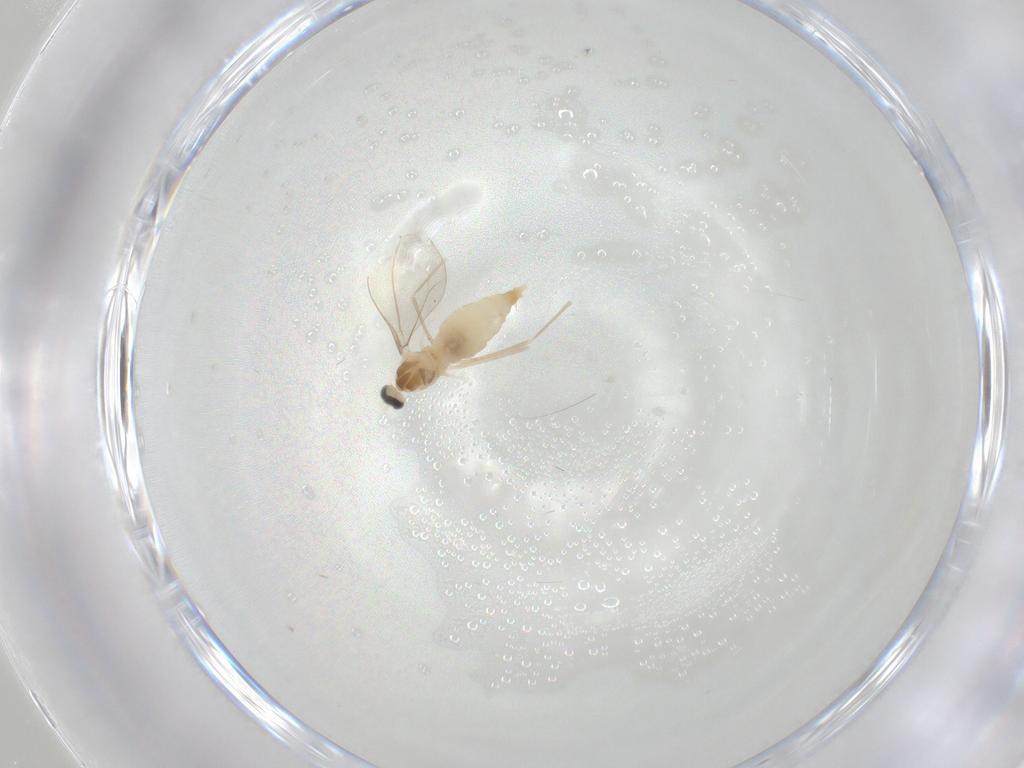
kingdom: Animalia
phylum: Arthropoda
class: Insecta
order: Diptera
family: Cecidomyiidae
